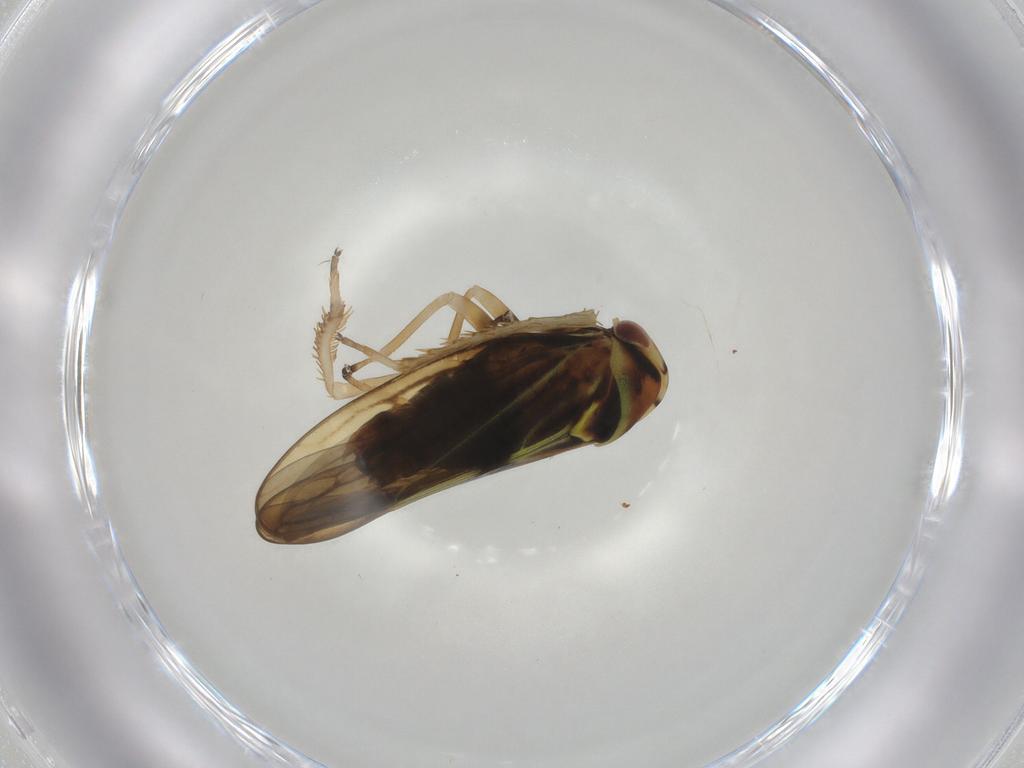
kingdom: Animalia
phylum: Arthropoda
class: Insecta
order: Hemiptera
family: Cicadellidae
